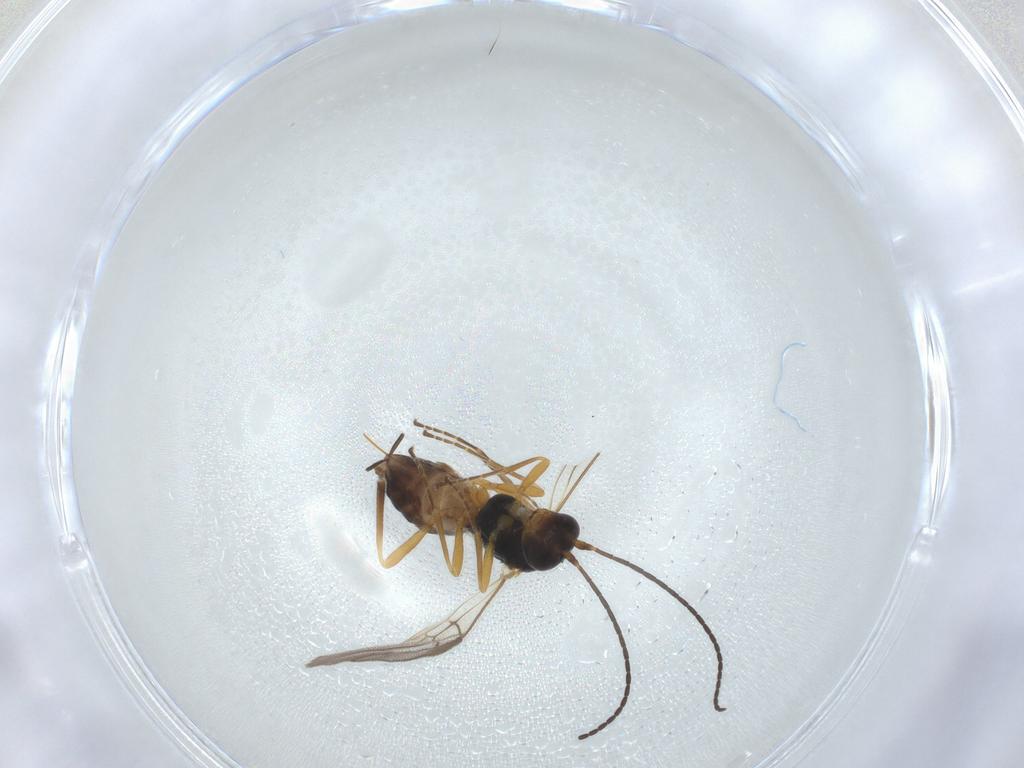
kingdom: Animalia
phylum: Arthropoda
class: Insecta
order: Hymenoptera
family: Braconidae
